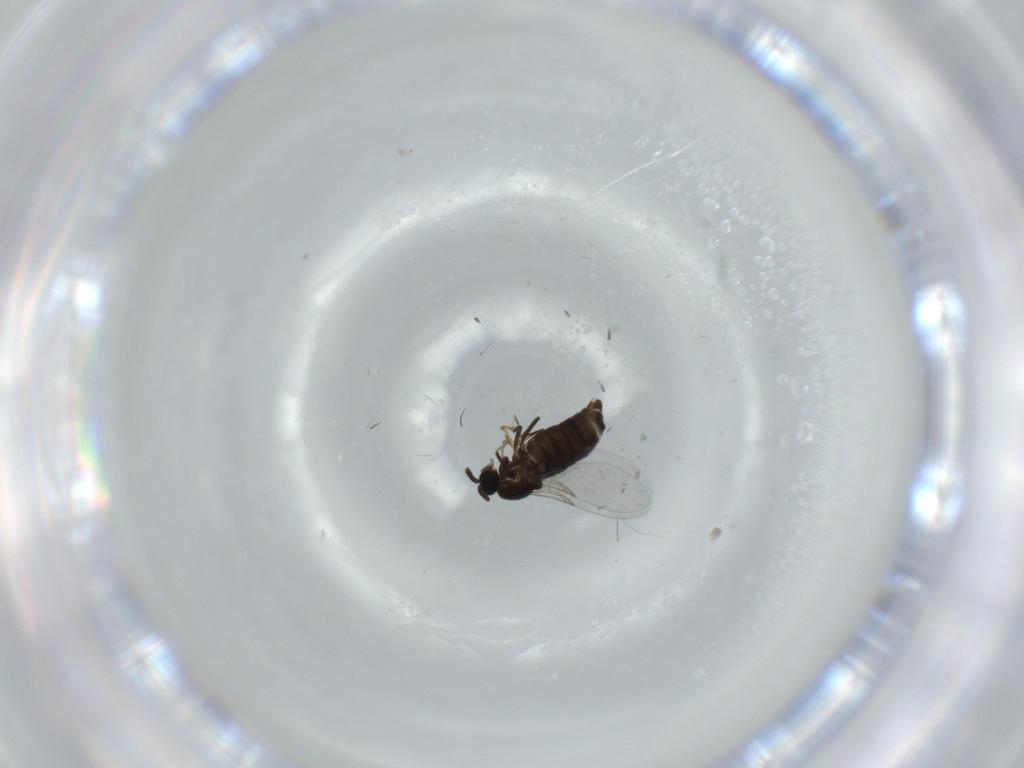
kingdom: Animalia
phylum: Arthropoda
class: Insecta
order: Diptera
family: Scatopsidae
